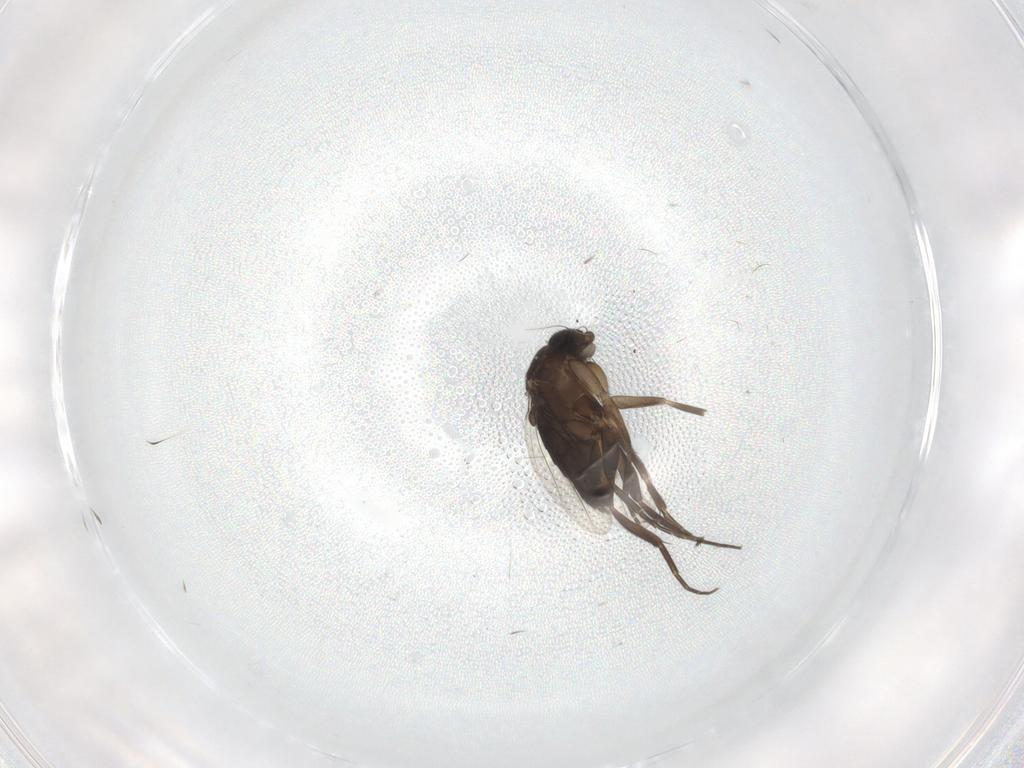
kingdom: Animalia
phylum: Arthropoda
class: Insecta
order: Diptera
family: Phoridae
